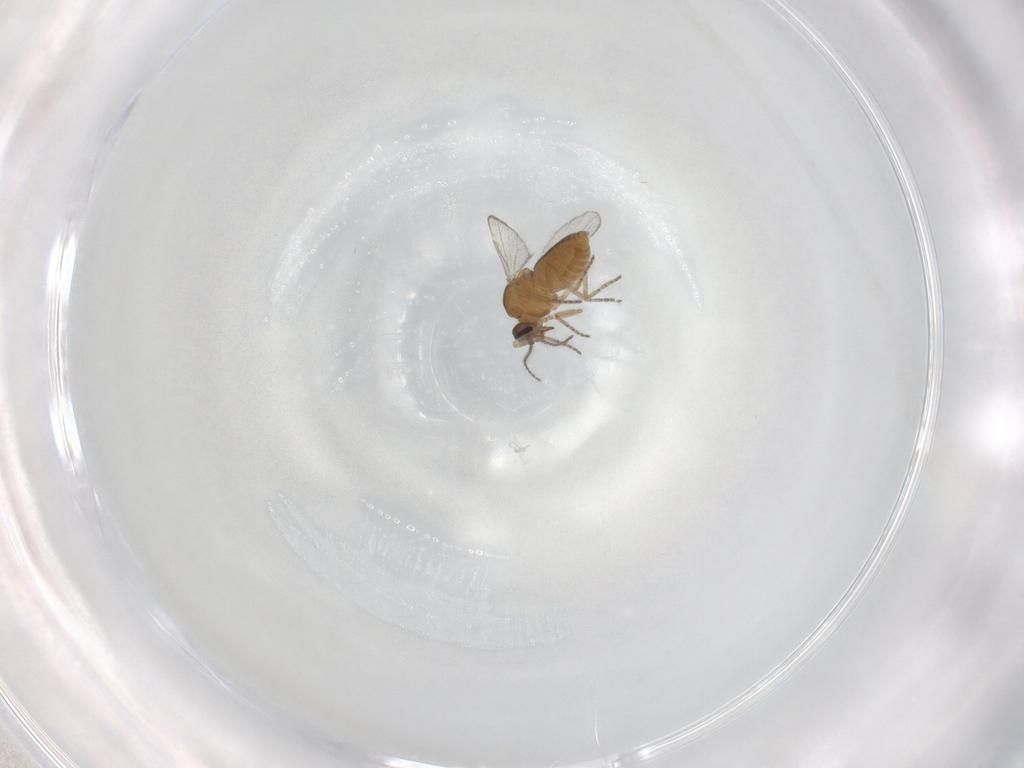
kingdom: Animalia
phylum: Arthropoda
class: Insecta
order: Diptera
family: Ceratopogonidae
